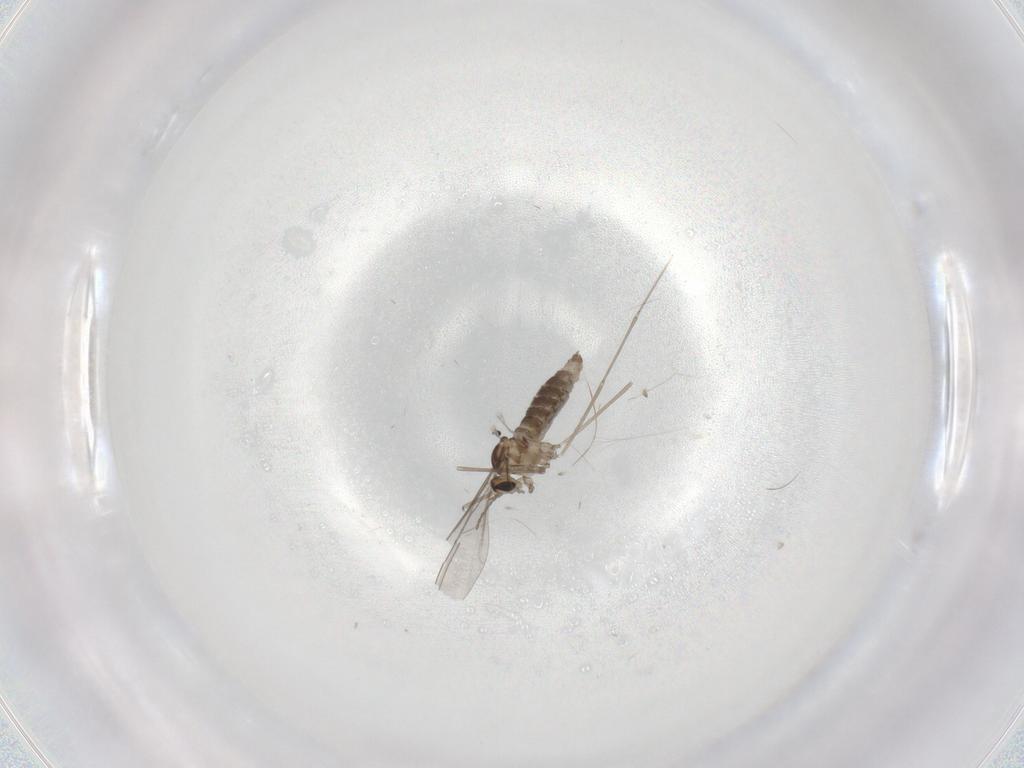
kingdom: Animalia
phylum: Arthropoda
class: Insecta
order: Diptera
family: Cecidomyiidae
